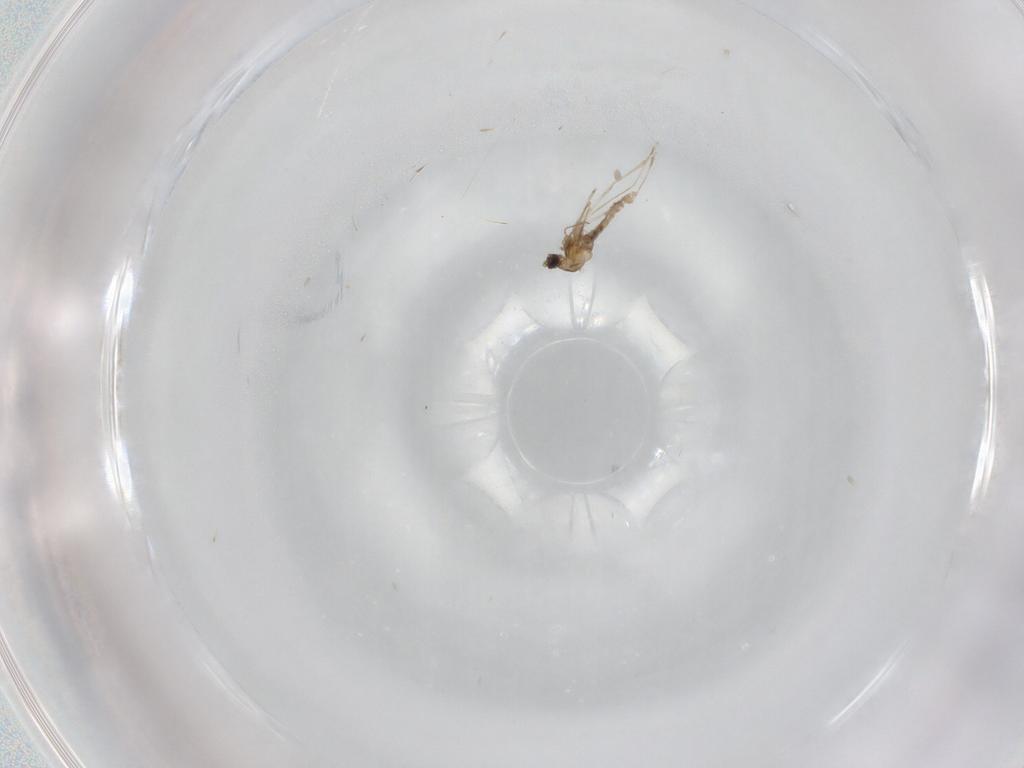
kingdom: Animalia
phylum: Arthropoda
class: Insecta
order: Diptera
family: Cecidomyiidae
